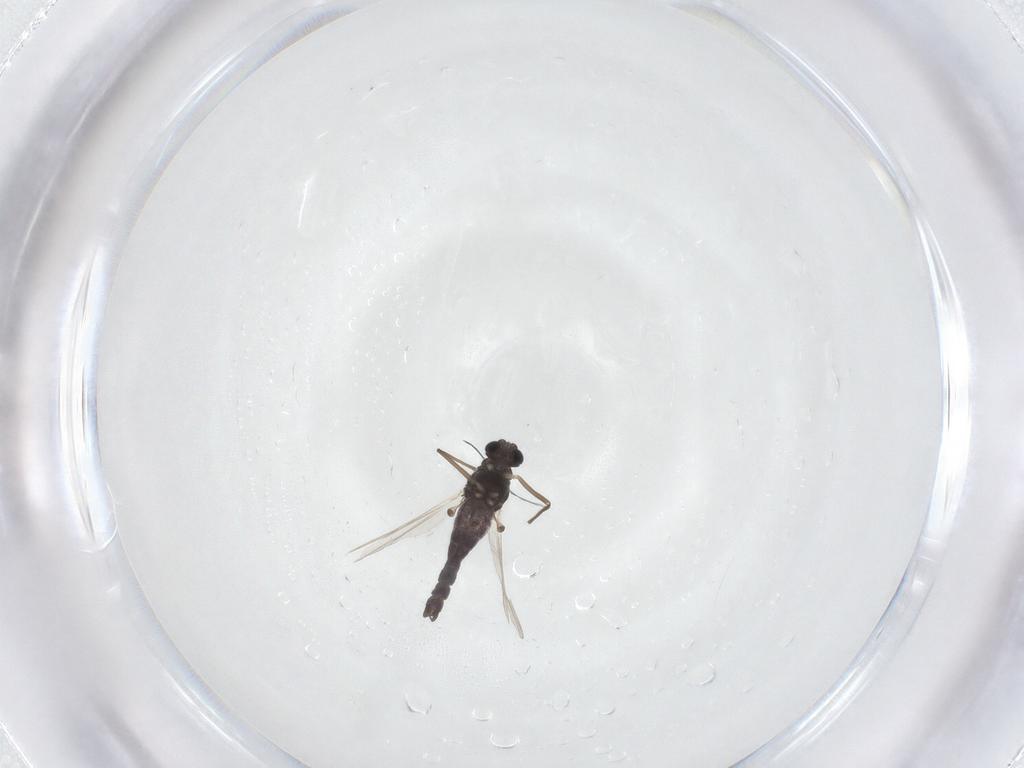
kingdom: Animalia
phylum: Arthropoda
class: Insecta
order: Diptera
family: Chironomidae
